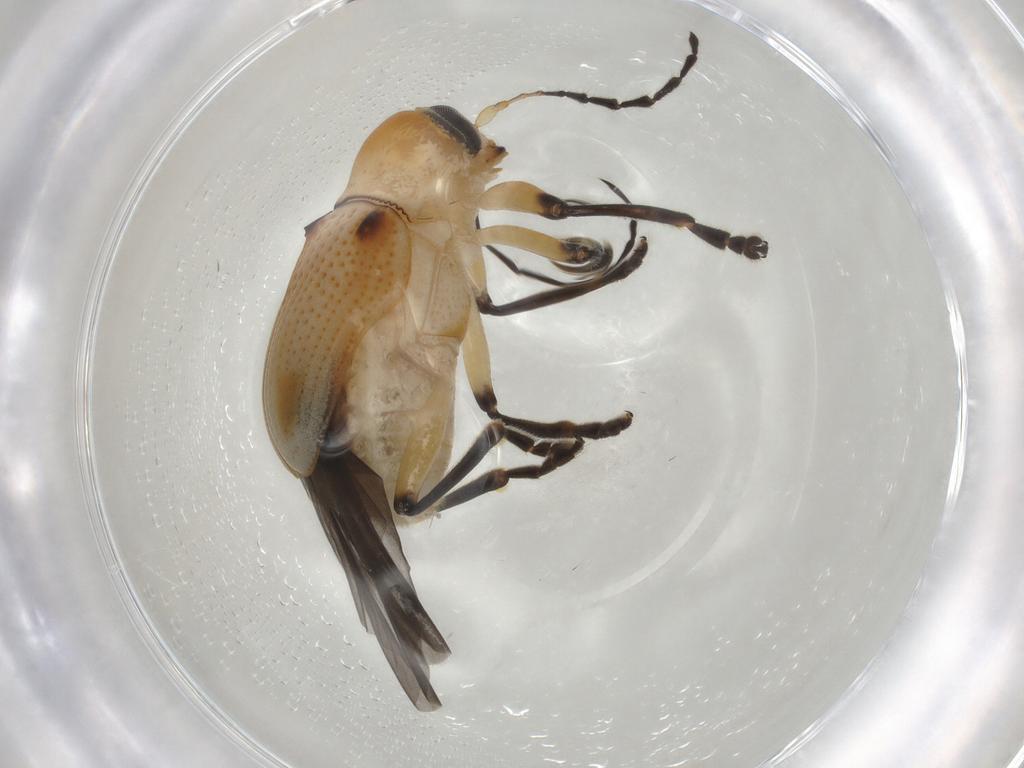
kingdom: Animalia
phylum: Arthropoda
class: Insecta
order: Coleoptera
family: Chrysomelidae
